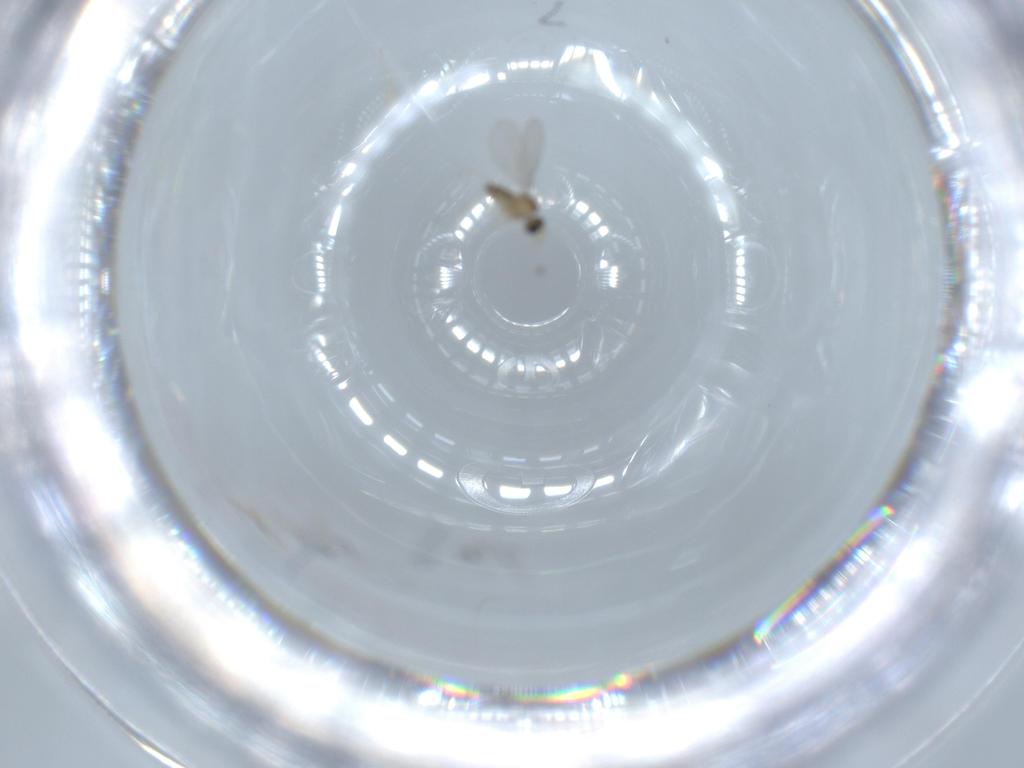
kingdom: Animalia
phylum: Arthropoda
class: Insecta
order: Diptera
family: Cecidomyiidae
